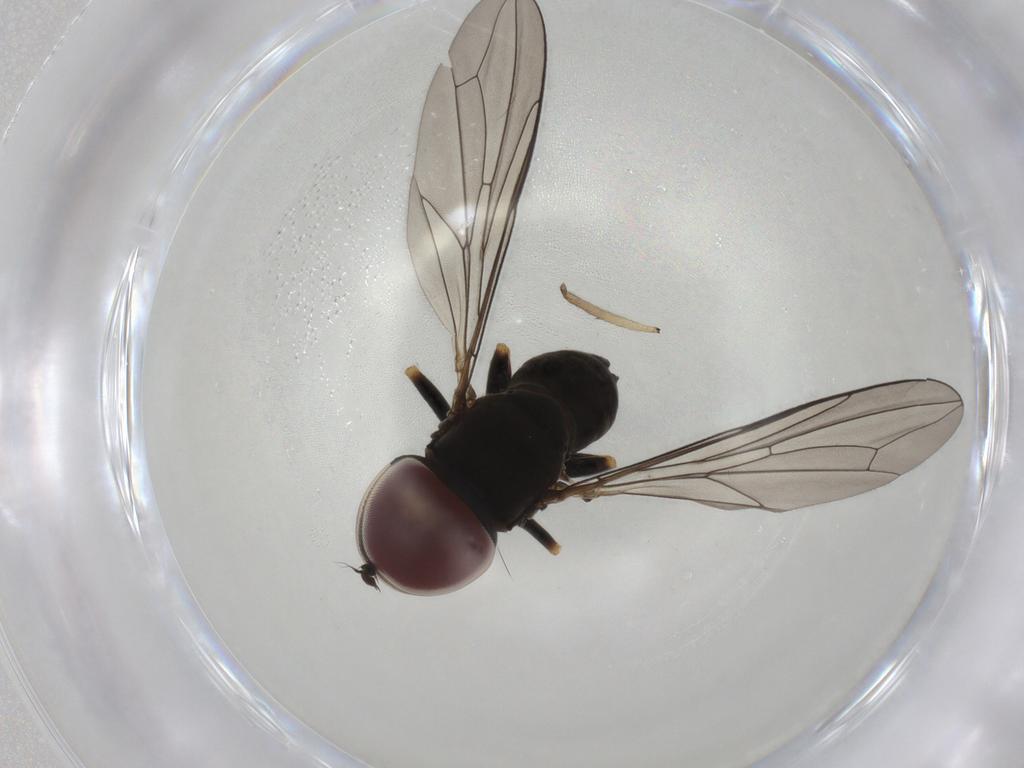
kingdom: Animalia
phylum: Arthropoda
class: Insecta
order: Diptera
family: Pipunculidae
